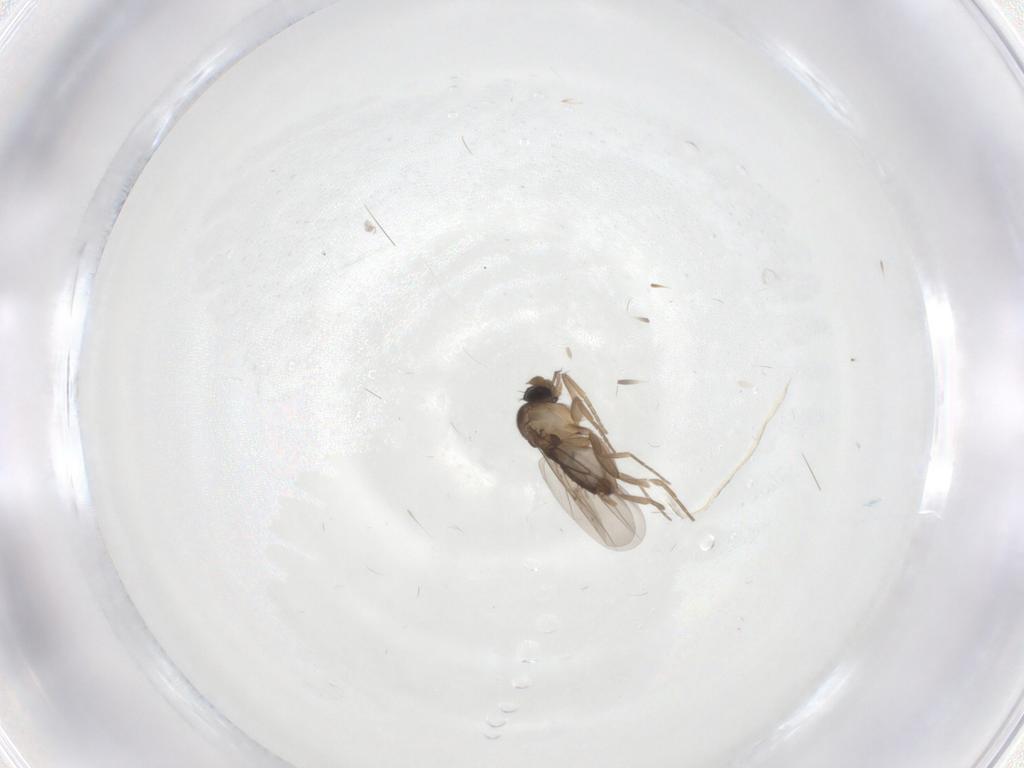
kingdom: Animalia
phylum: Arthropoda
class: Insecta
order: Diptera
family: Phoridae
